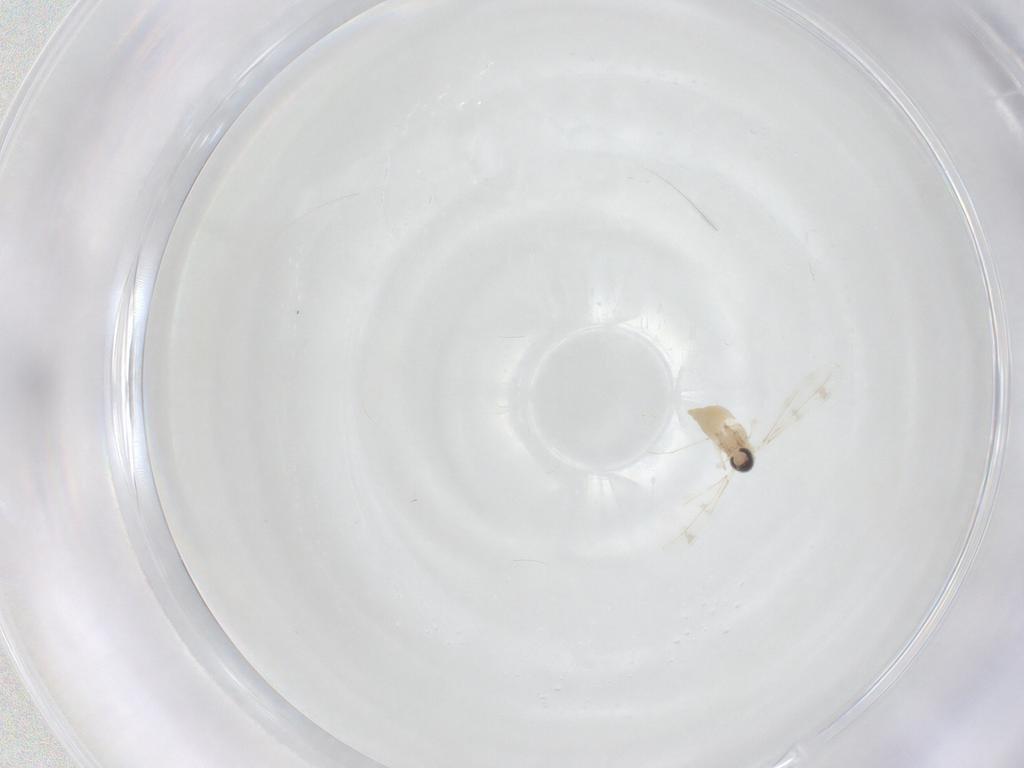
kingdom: Animalia
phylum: Arthropoda
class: Insecta
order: Diptera
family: Cecidomyiidae
